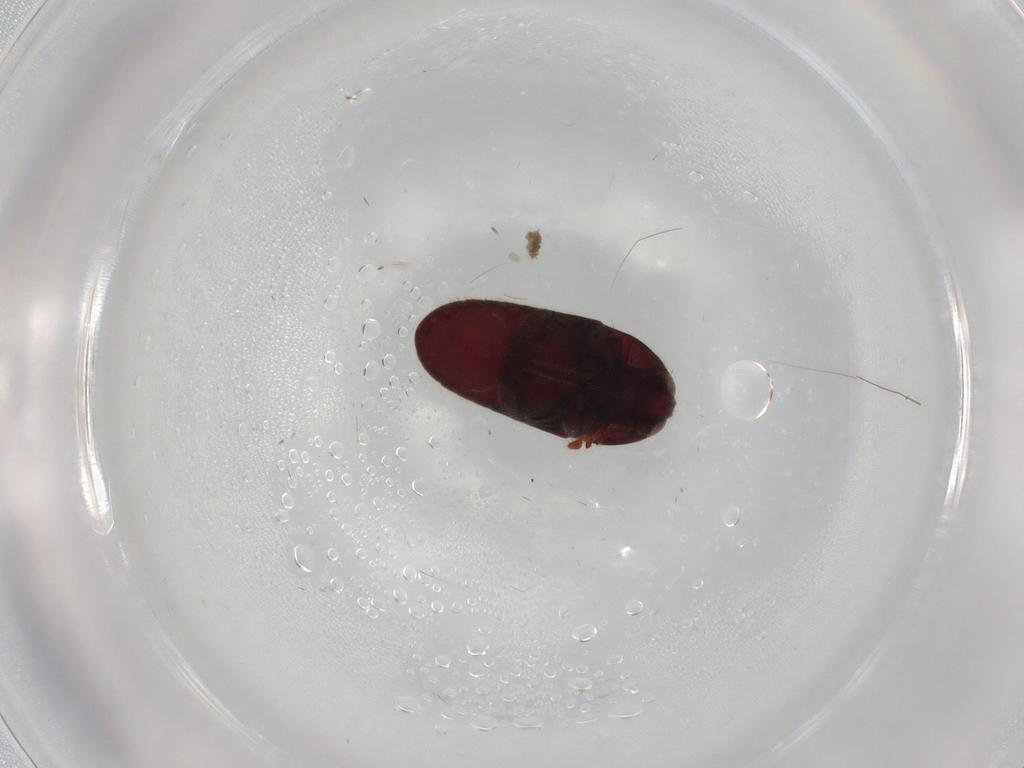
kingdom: Animalia
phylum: Arthropoda
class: Insecta
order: Coleoptera
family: Throscidae
